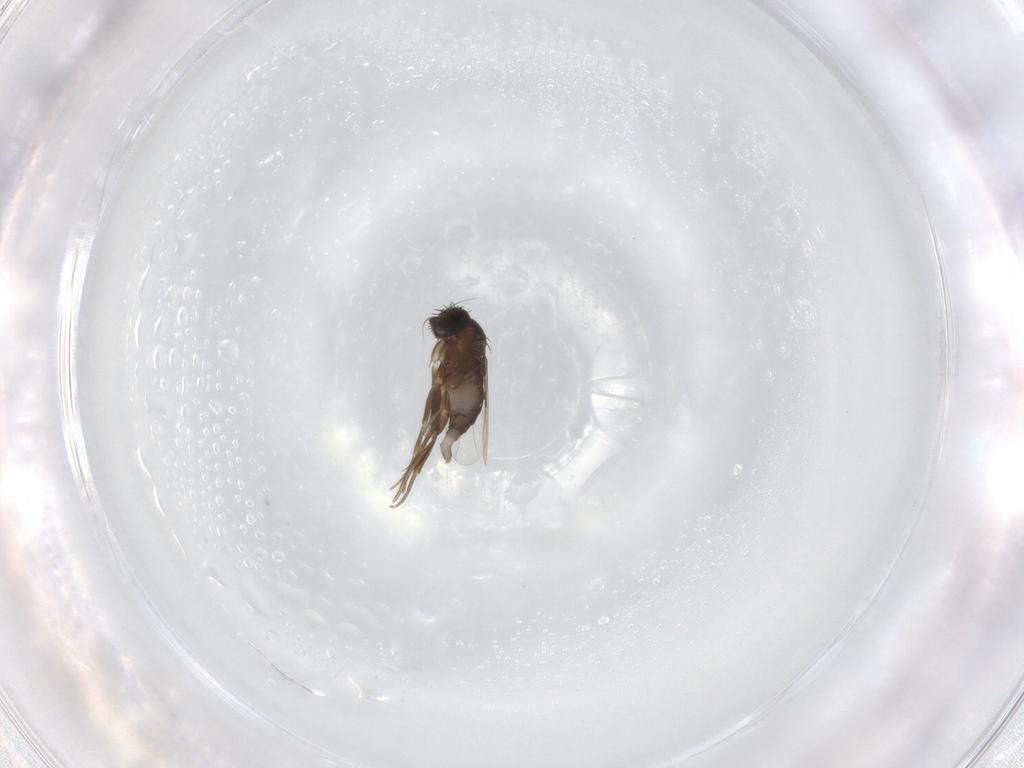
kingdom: Animalia
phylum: Arthropoda
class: Insecta
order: Diptera
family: Phoridae
